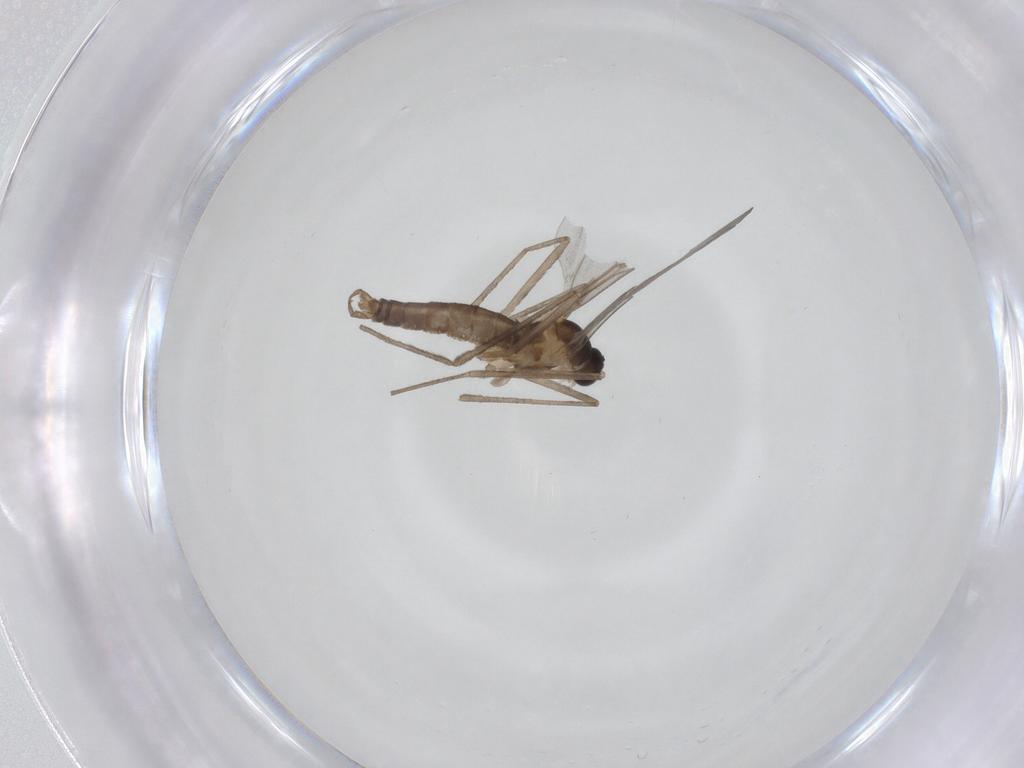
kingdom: Animalia
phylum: Arthropoda
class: Insecta
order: Diptera
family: Cecidomyiidae
